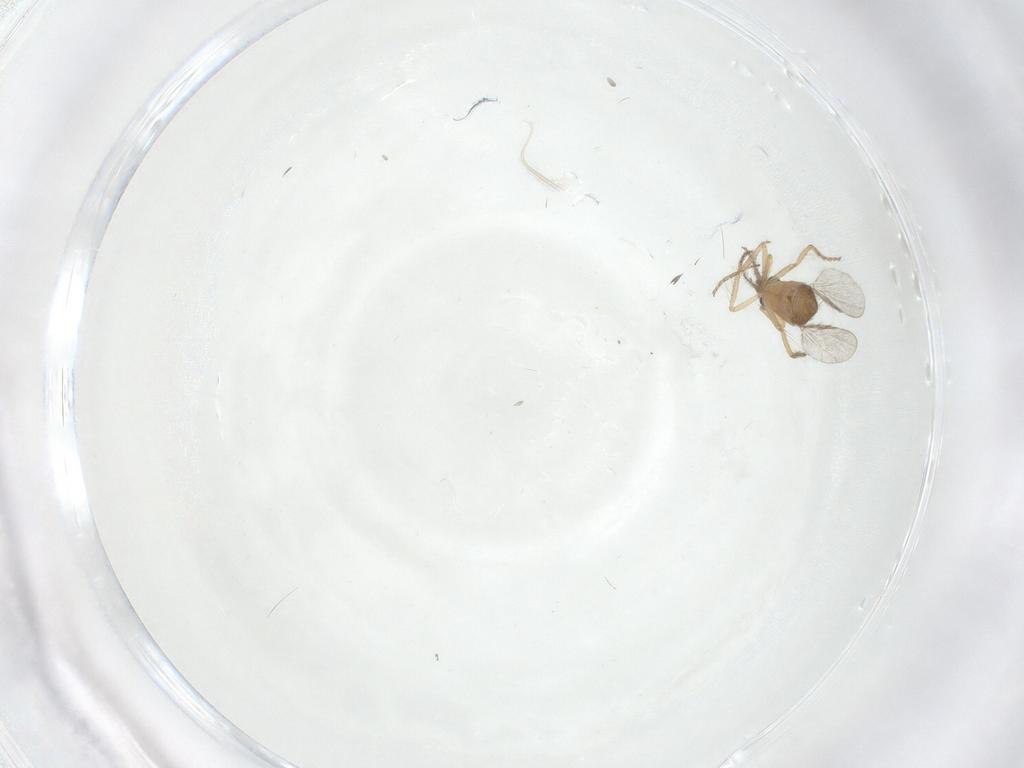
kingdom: Animalia
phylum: Arthropoda
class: Insecta
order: Diptera
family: Ceratopogonidae
